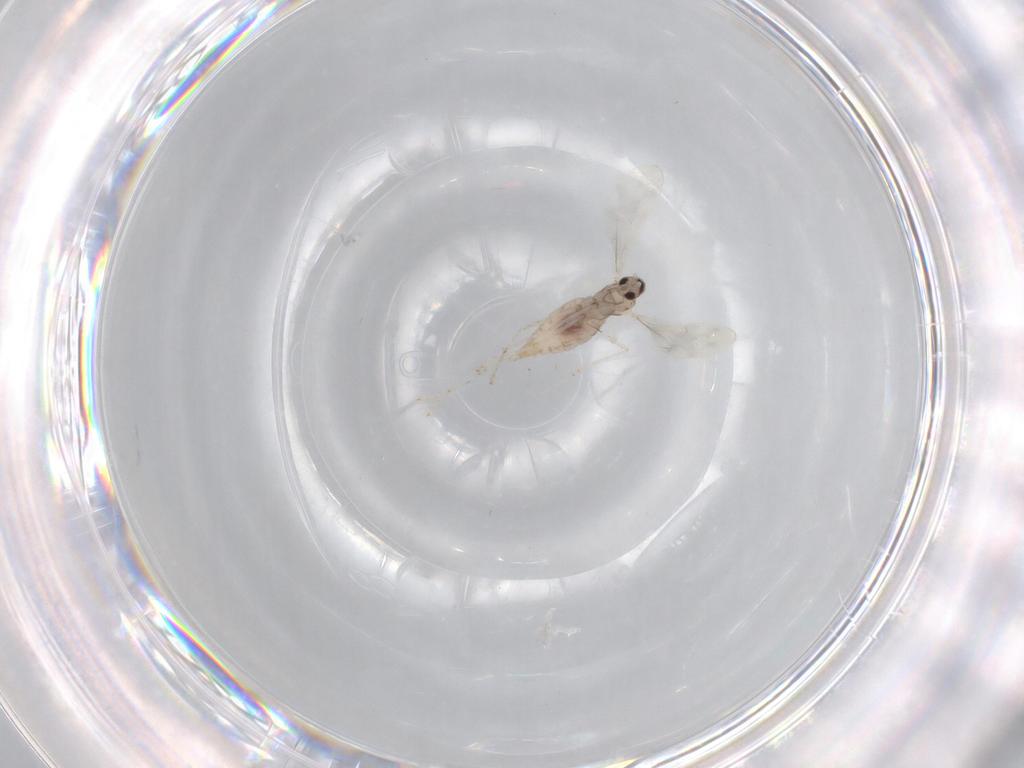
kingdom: Animalia
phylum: Arthropoda
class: Insecta
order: Diptera
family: Cecidomyiidae
